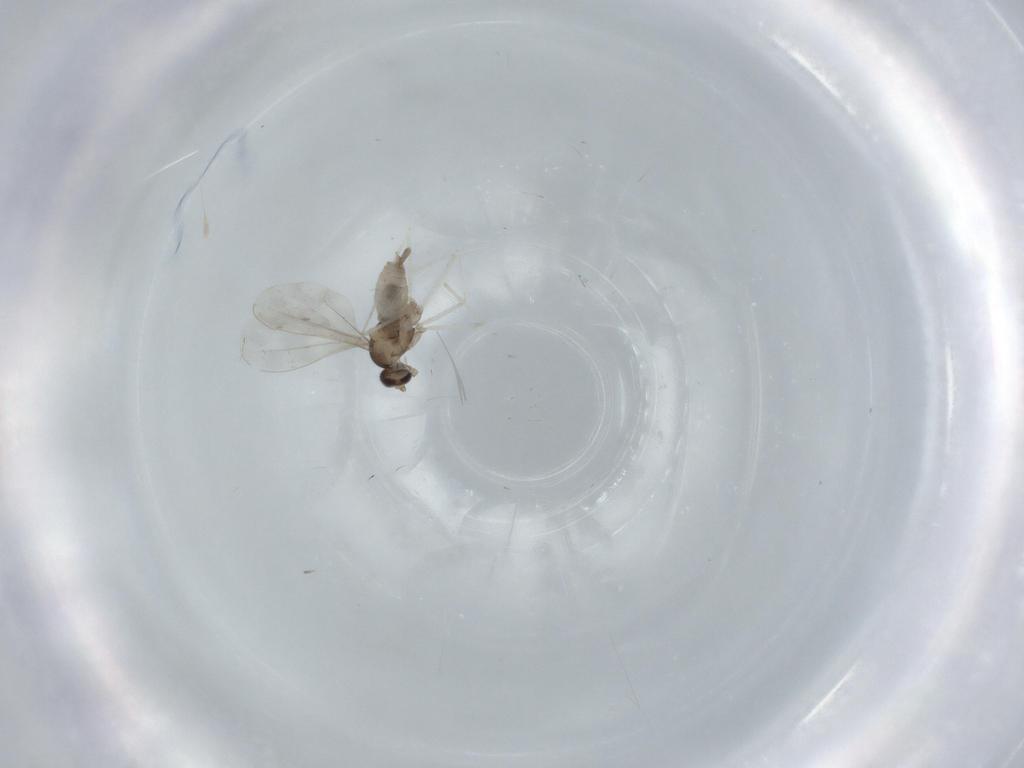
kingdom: Animalia
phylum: Arthropoda
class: Insecta
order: Diptera
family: Cecidomyiidae
